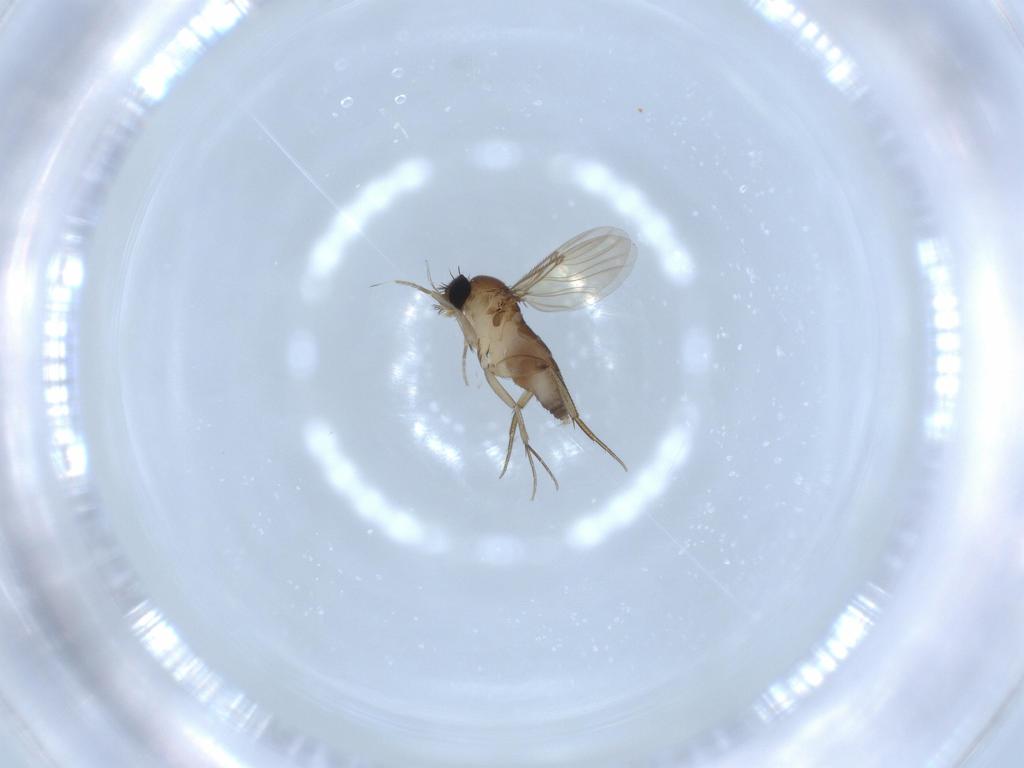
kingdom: Animalia
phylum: Arthropoda
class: Insecta
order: Diptera
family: Phoridae
